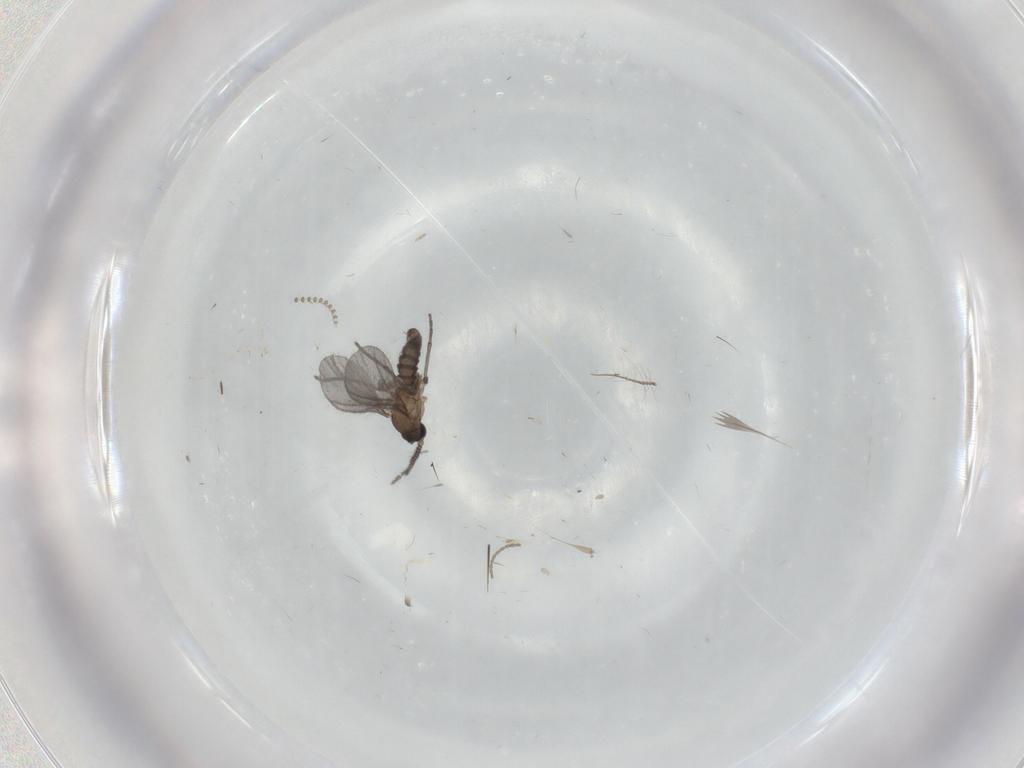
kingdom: Animalia
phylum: Arthropoda
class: Insecta
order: Diptera
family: Sciaridae
